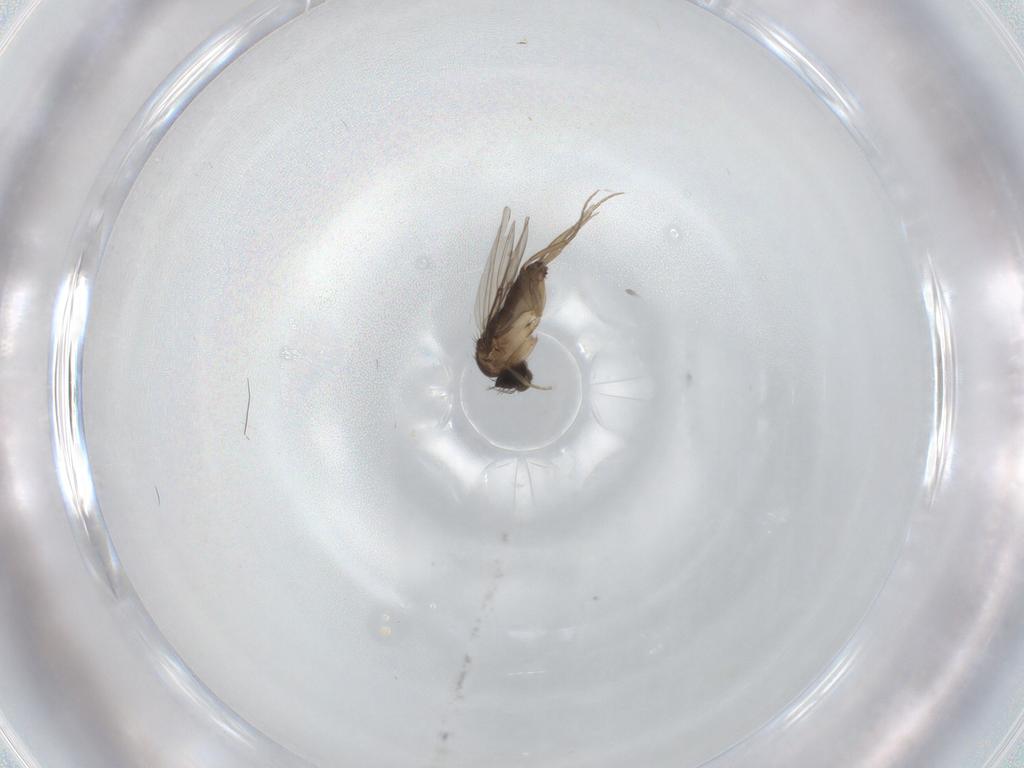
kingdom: Animalia
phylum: Arthropoda
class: Insecta
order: Diptera
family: Phoridae
